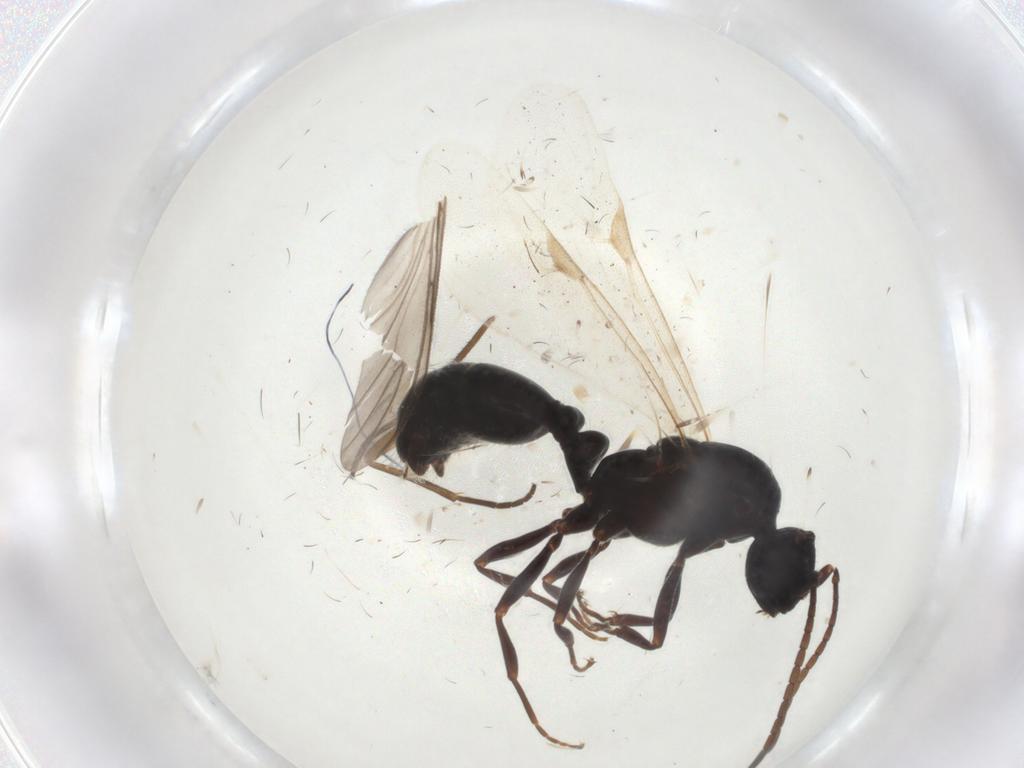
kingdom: Animalia
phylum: Arthropoda
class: Insecta
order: Hymenoptera
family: Formicidae
